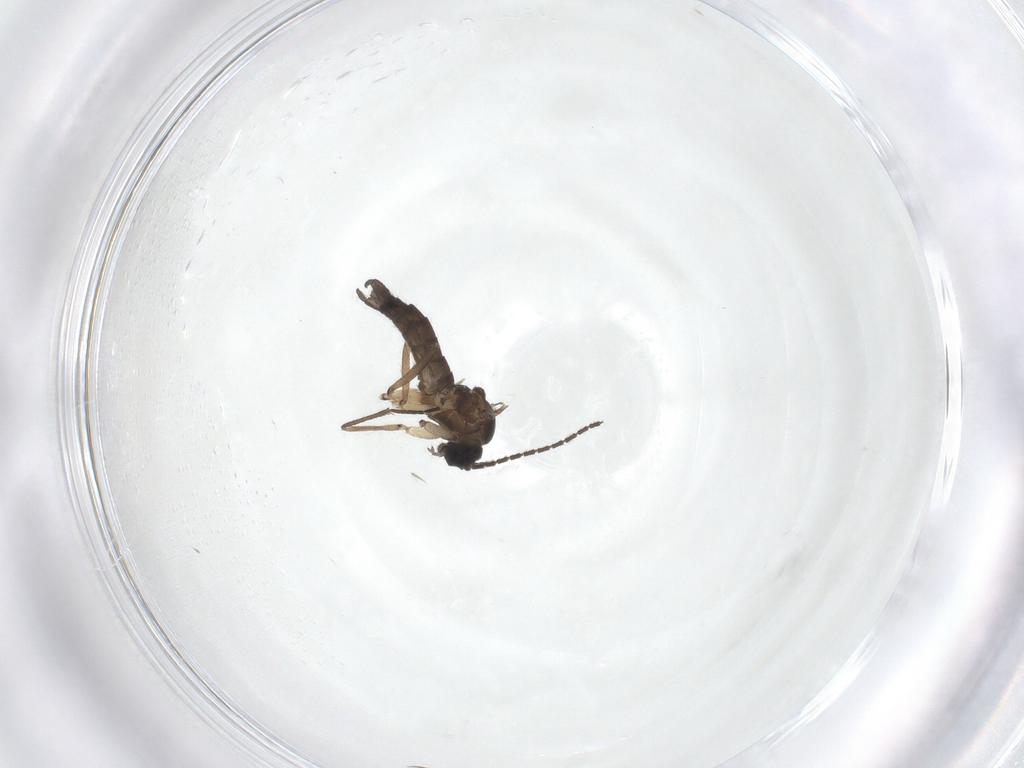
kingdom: Animalia
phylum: Arthropoda
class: Insecta
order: Diptera
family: Sciaridae
